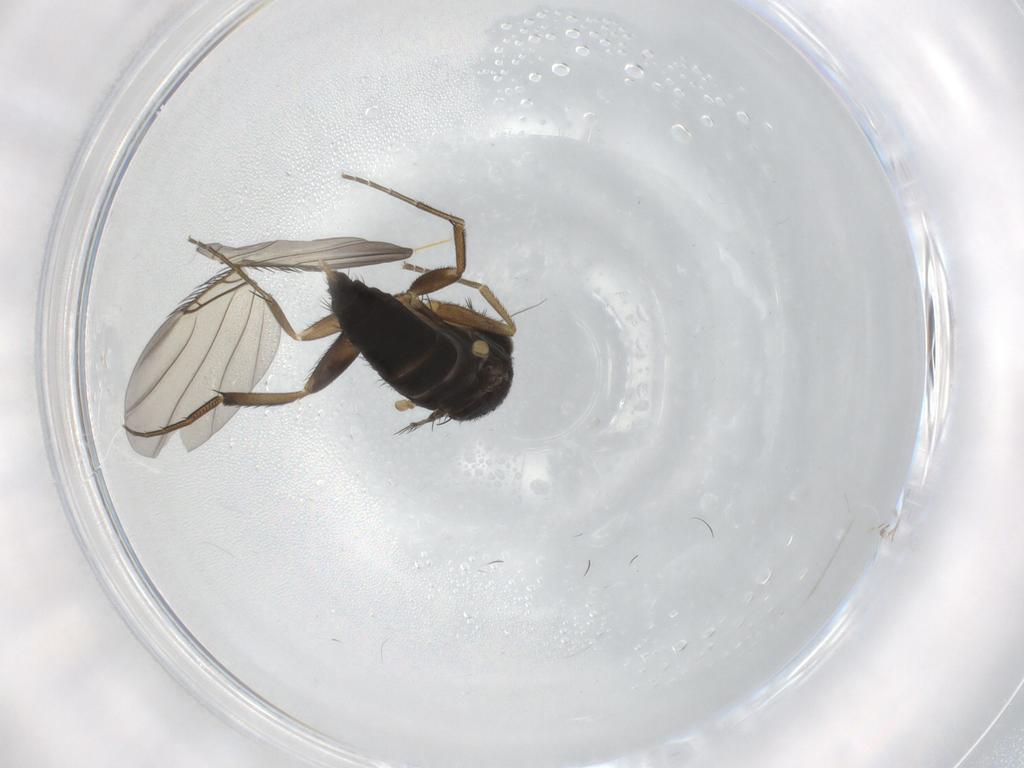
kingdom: Animalia
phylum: Arthropoda
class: Insecta
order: Diptera
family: Phoridae
